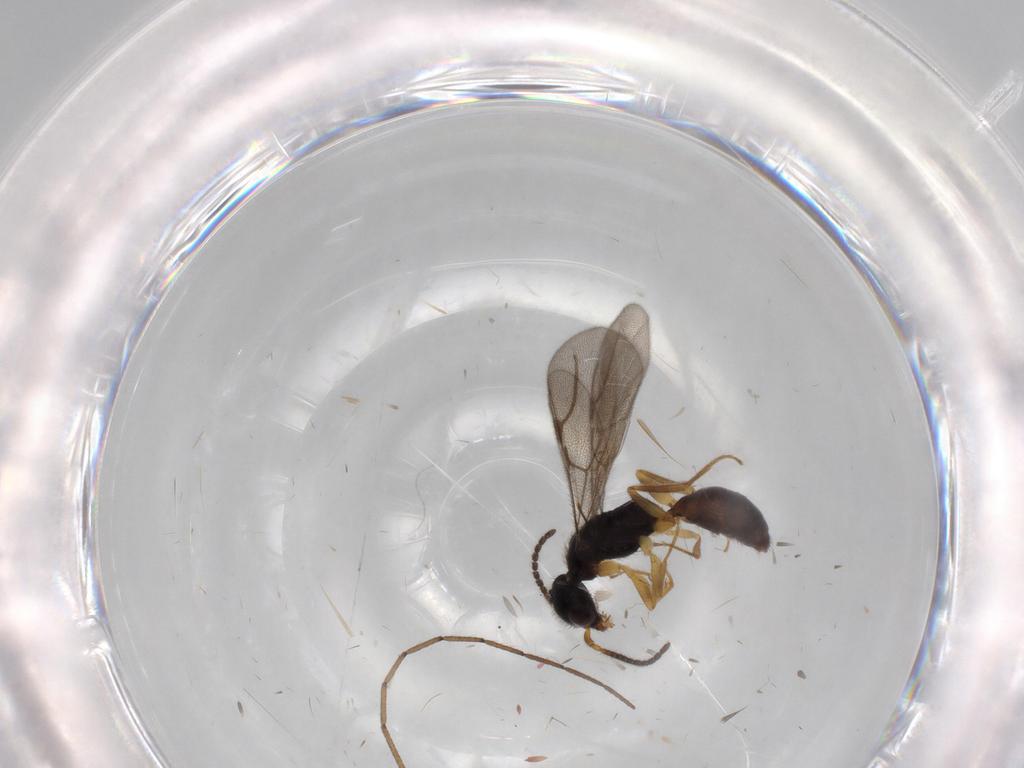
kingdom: Animalia
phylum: Arthropoda
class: Insecta
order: Hymenoptera
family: Bethylidae
